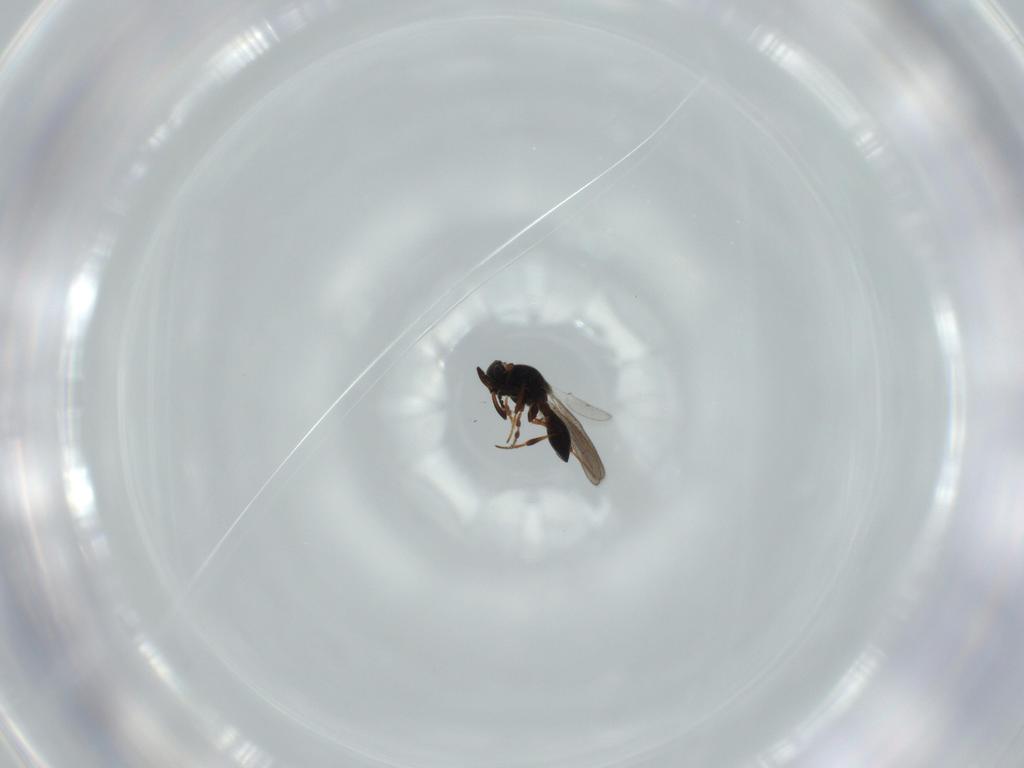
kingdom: Animalia
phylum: Arthropoda
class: Insecta
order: Hymenoptera
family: Platygastridae
